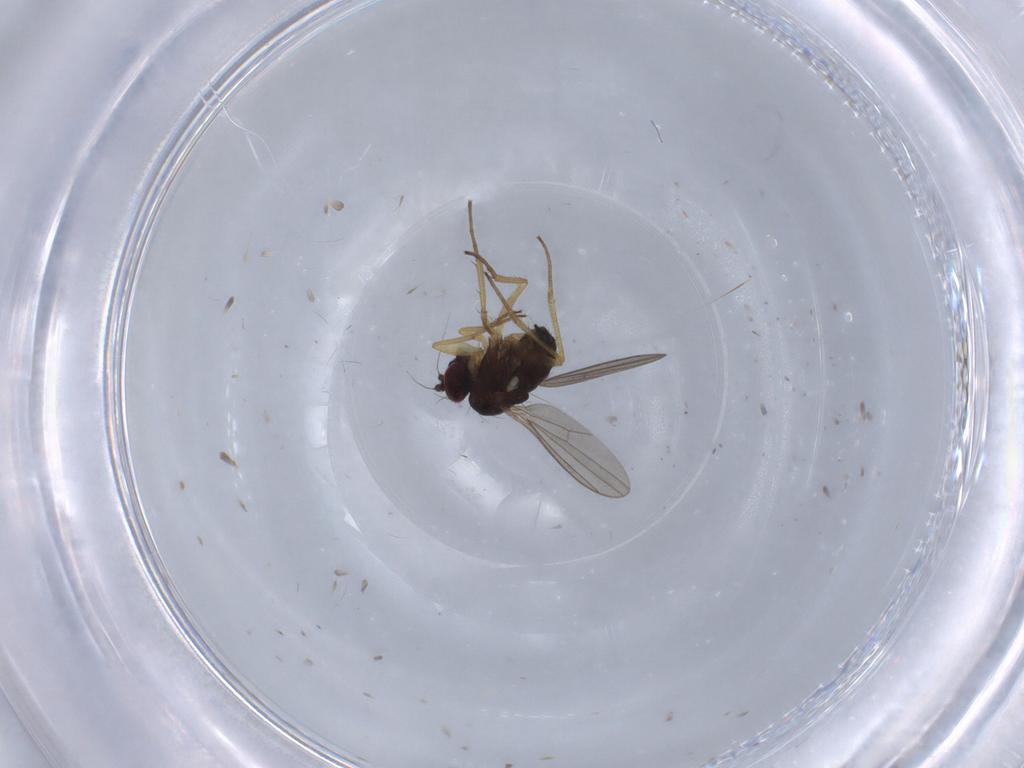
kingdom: Animalia
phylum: Arthropoda
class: Insecta
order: Diptera
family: Dolichopodidae
